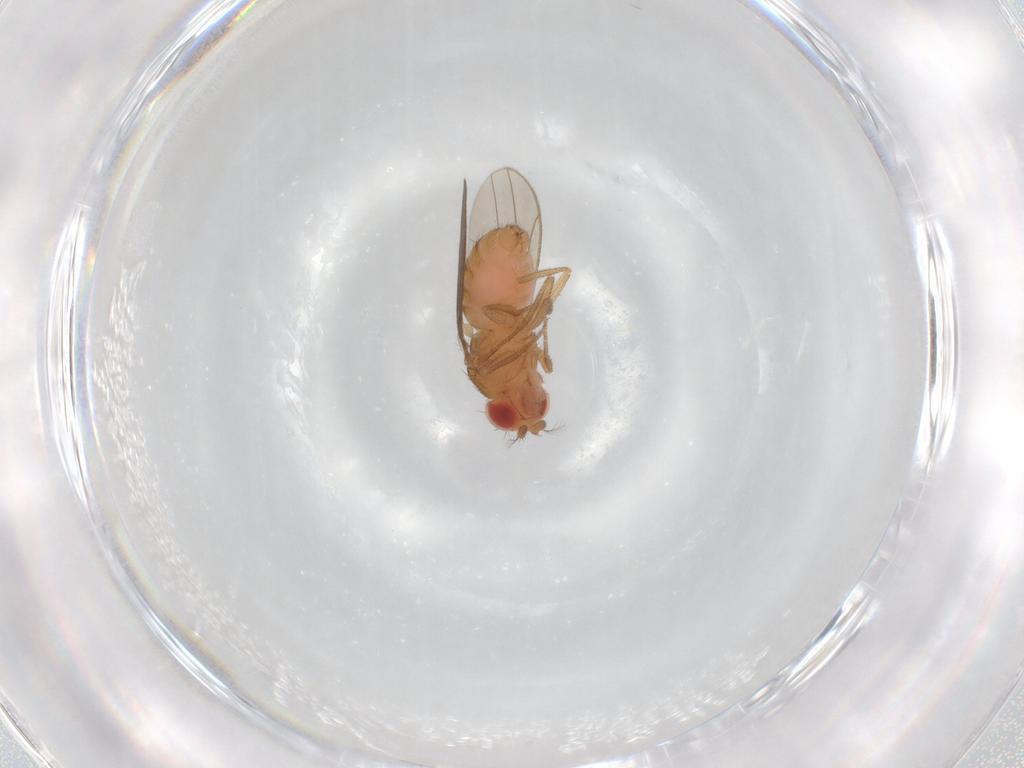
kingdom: Animalia
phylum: Arthropoda
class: Insecta
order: Diptera
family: Drosophilidae
